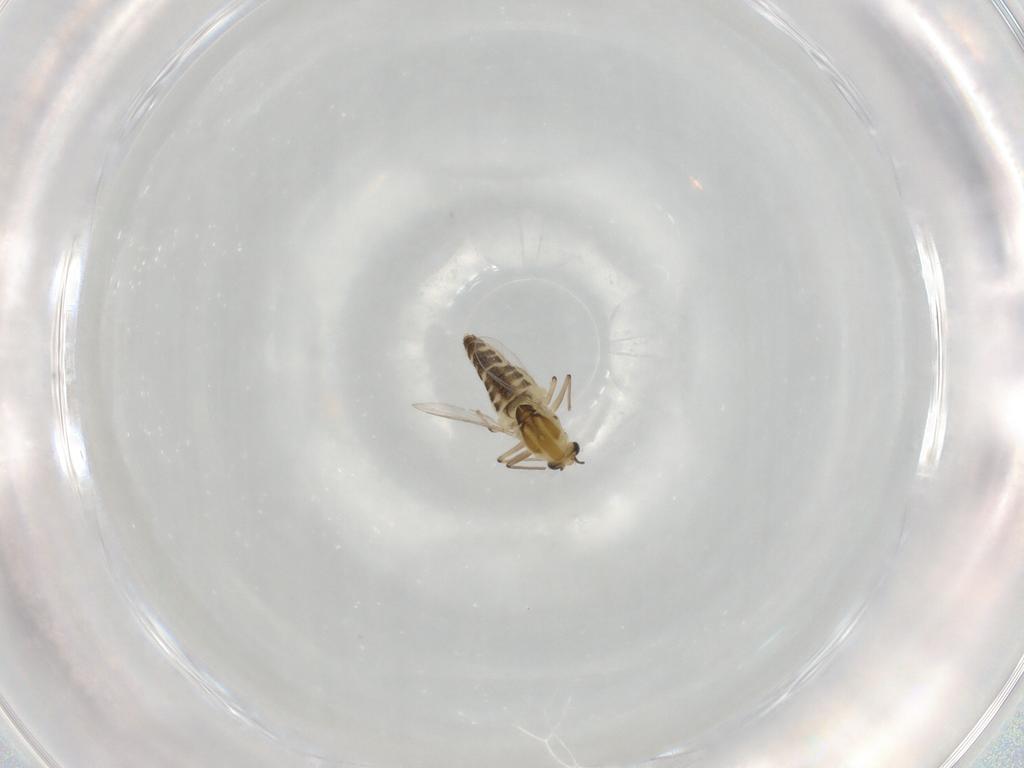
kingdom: Animalia
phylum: Arthropoda
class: Insecta
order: Diptera
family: Chironomidae
